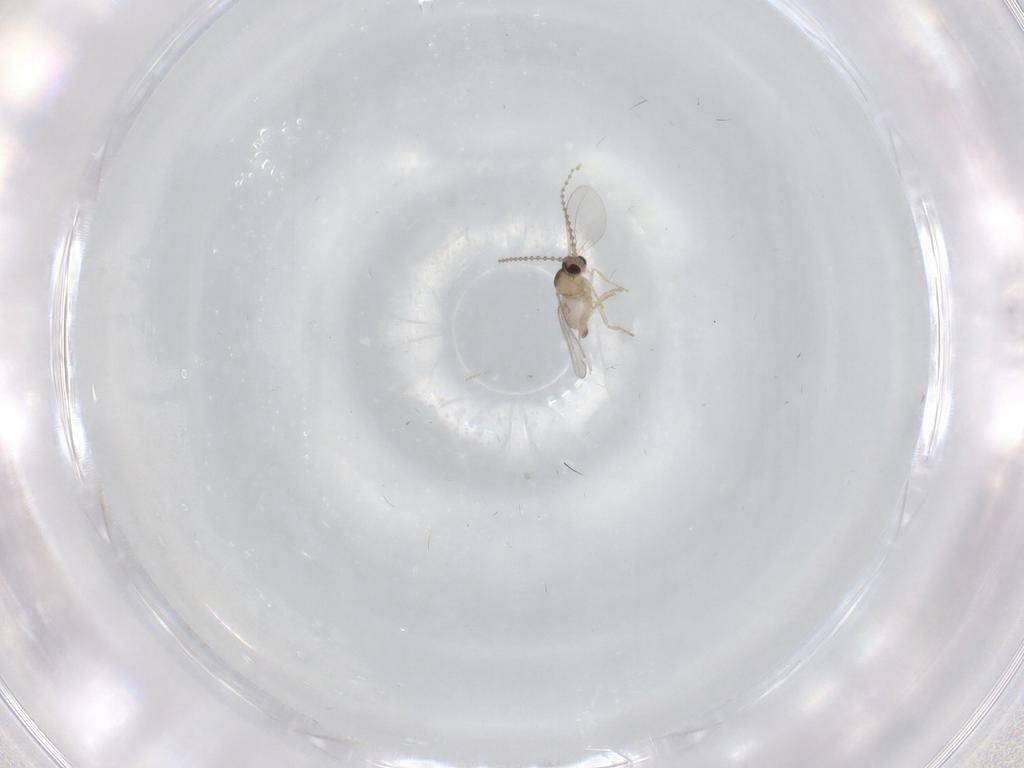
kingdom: Animalia
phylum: Arthropoda
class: Insecta
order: Diptera
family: Cecidomyiidae
